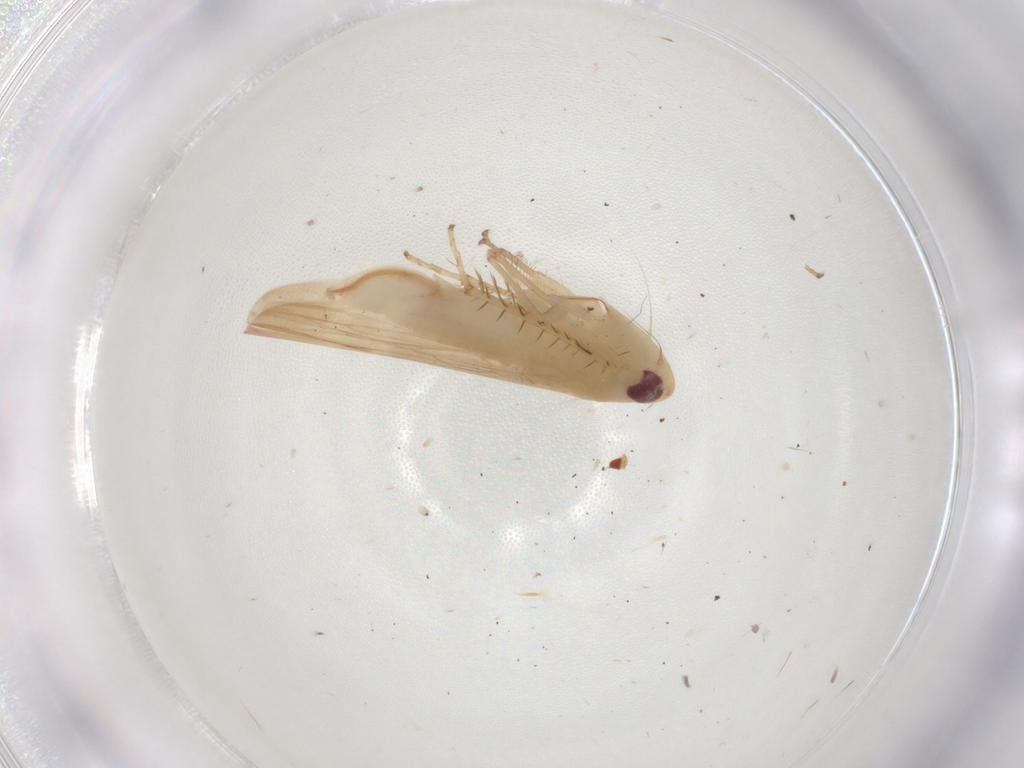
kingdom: Animalia
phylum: Arthropoda
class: Insecta
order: Hemiptera
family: Cicadellidae
